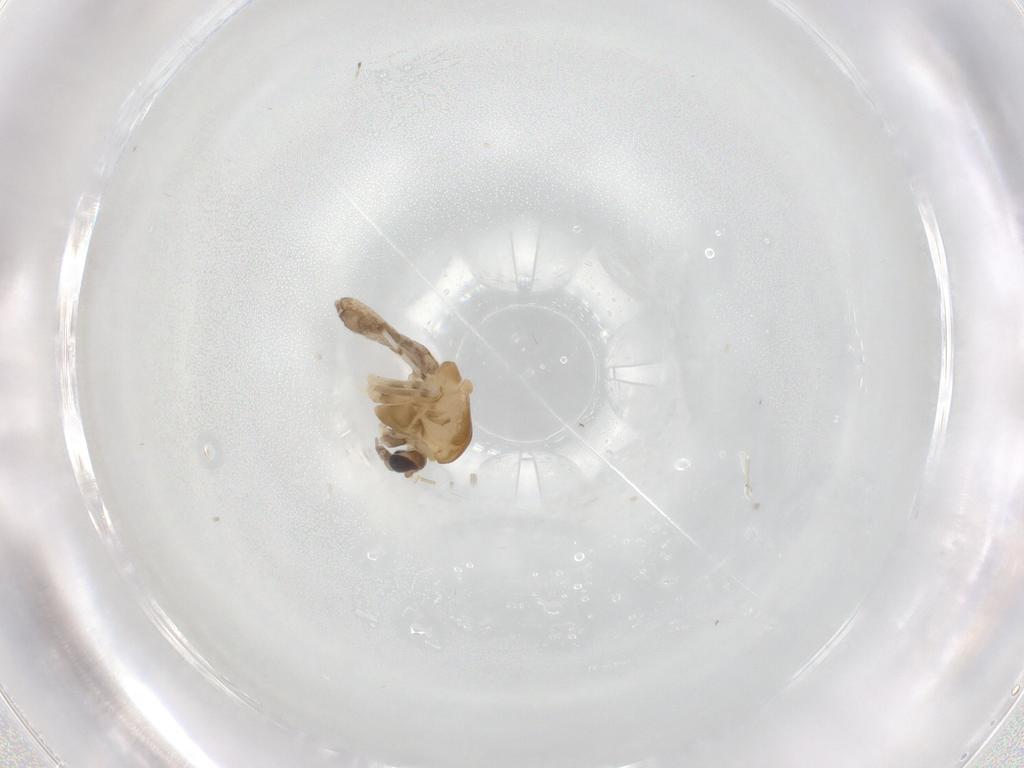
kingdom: Animalia
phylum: Arthropoda
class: Insecta
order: Diptera
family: Chironomidae
